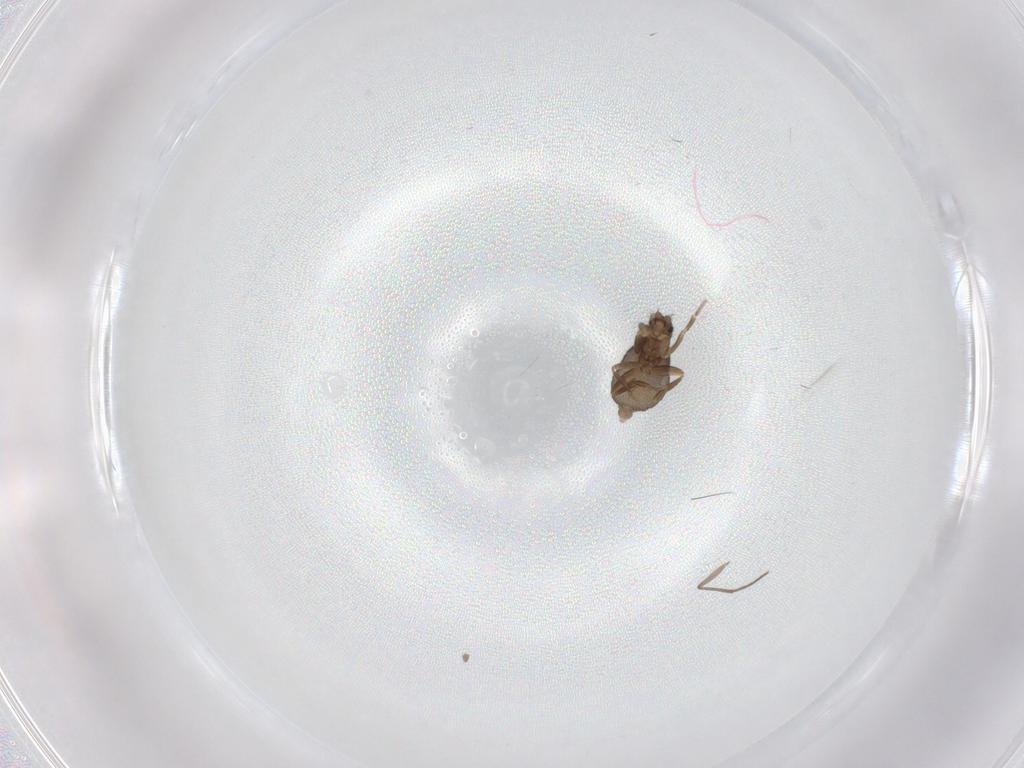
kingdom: Animalia
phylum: Arthropoda
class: Insecta
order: Diptera
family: Sciaridae
